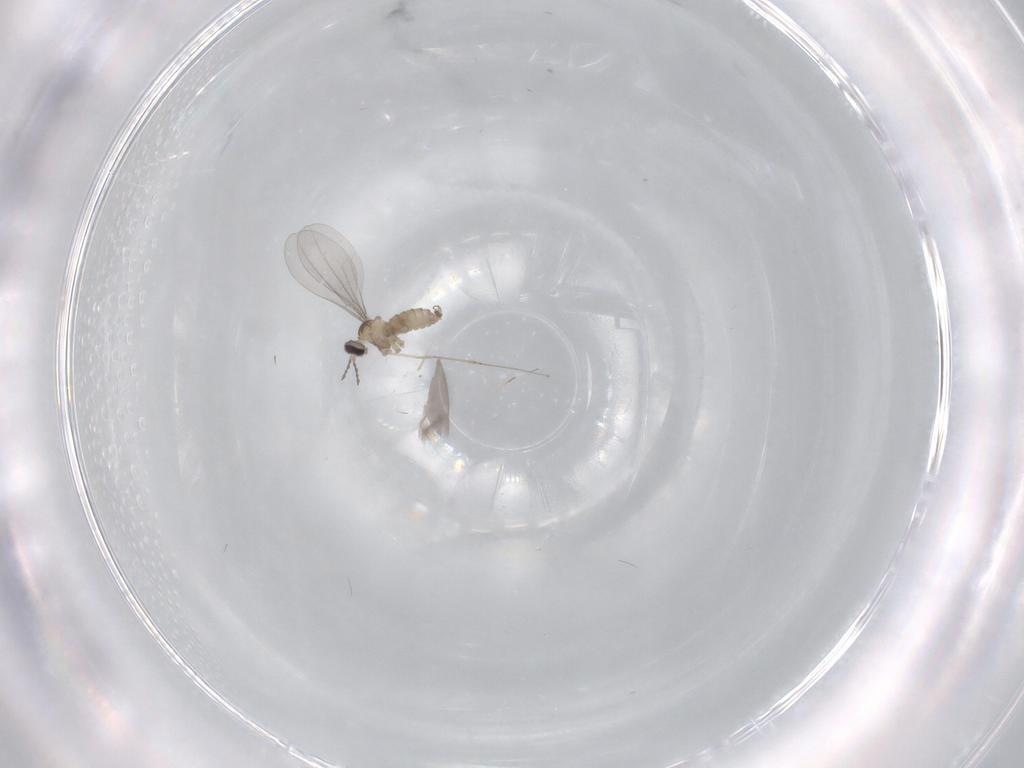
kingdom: Animalia
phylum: Arthropoda
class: Insecta
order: Diptera
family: Cecidomyiidae
